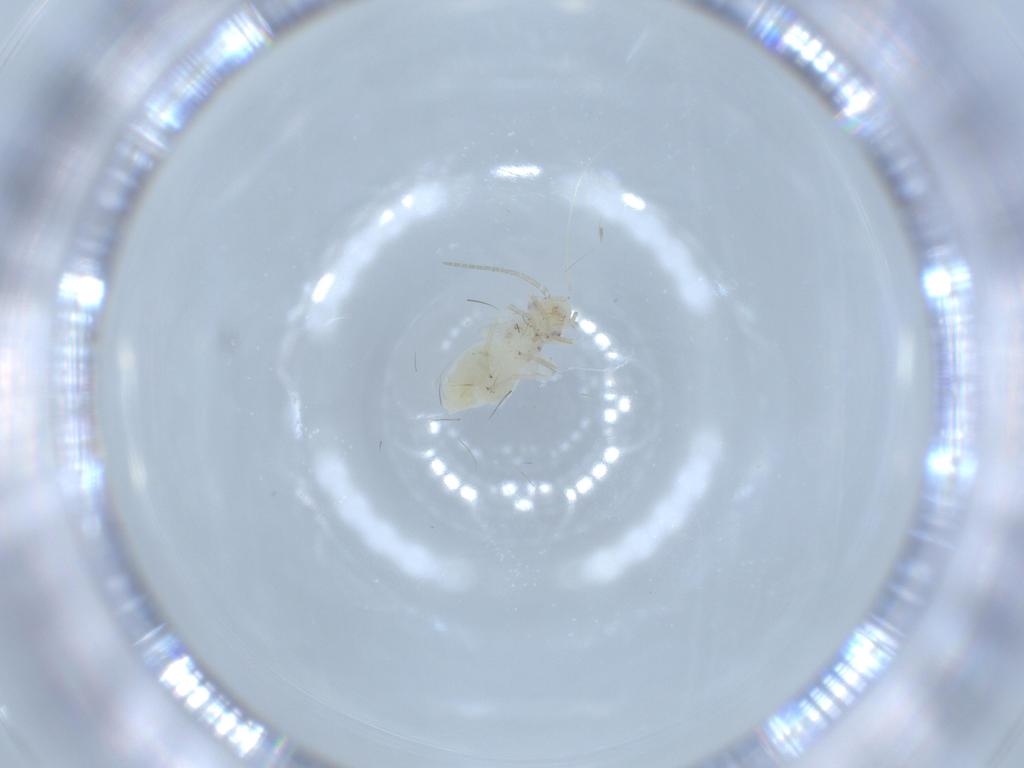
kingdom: Animalia
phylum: Arthropoda
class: Insecta
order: Psocodea
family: Caeciliusidae
